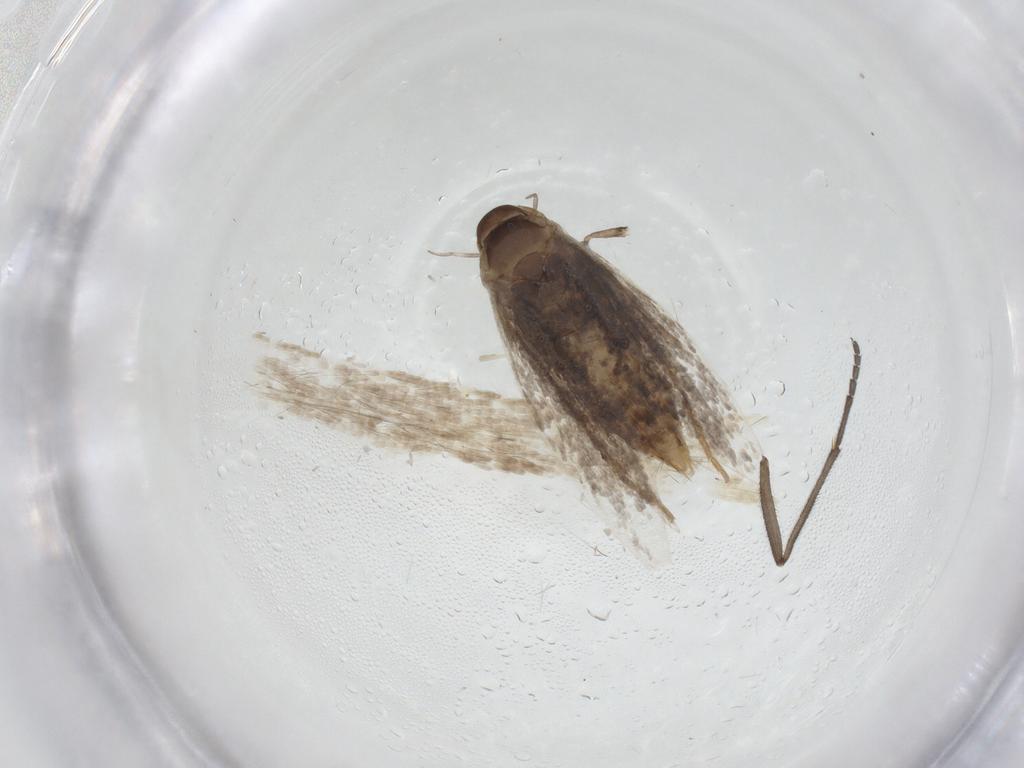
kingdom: Animalia
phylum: Arthropoda
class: Insecta
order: Lepidoptera
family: Elachistidae
